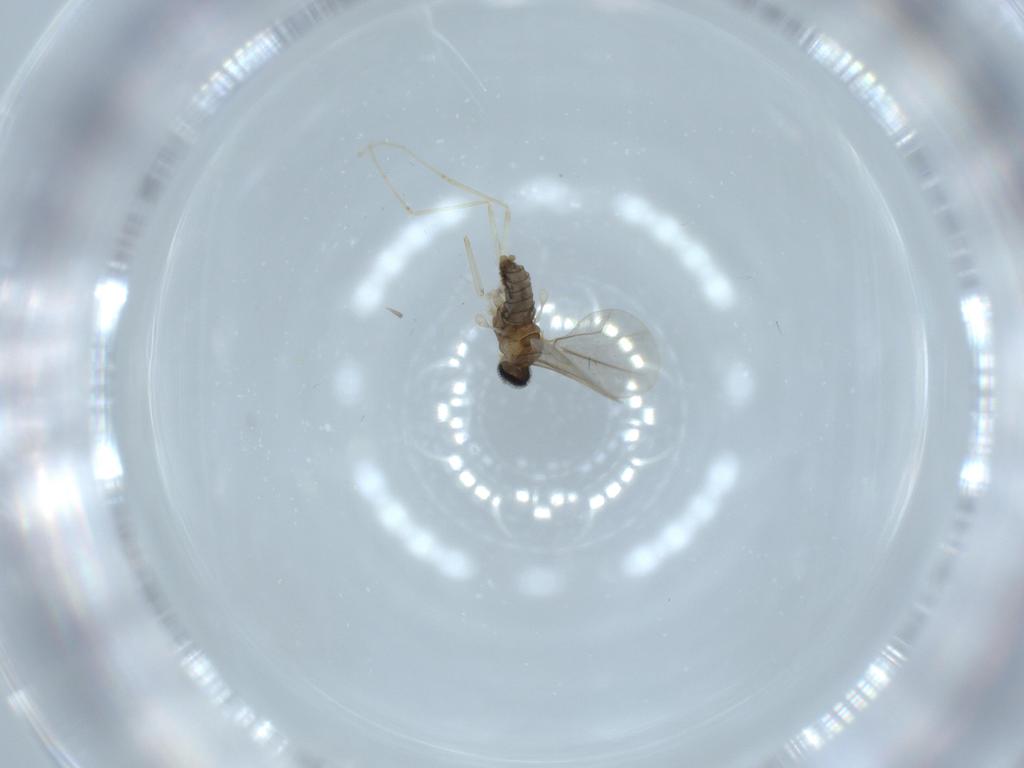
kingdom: Animalia
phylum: Arthropoda
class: Insecta
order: Diptera
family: Cecidomyiidae
